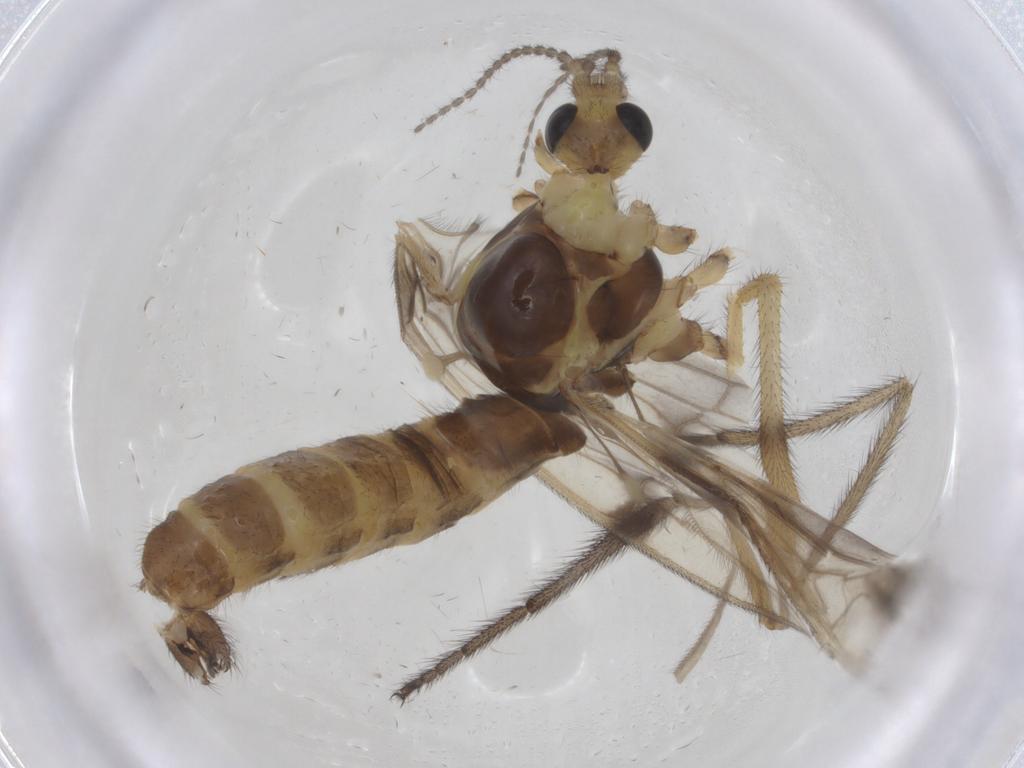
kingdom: Animalia
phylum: Arthropoda
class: Insecta
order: Diptera
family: Limoniidae
